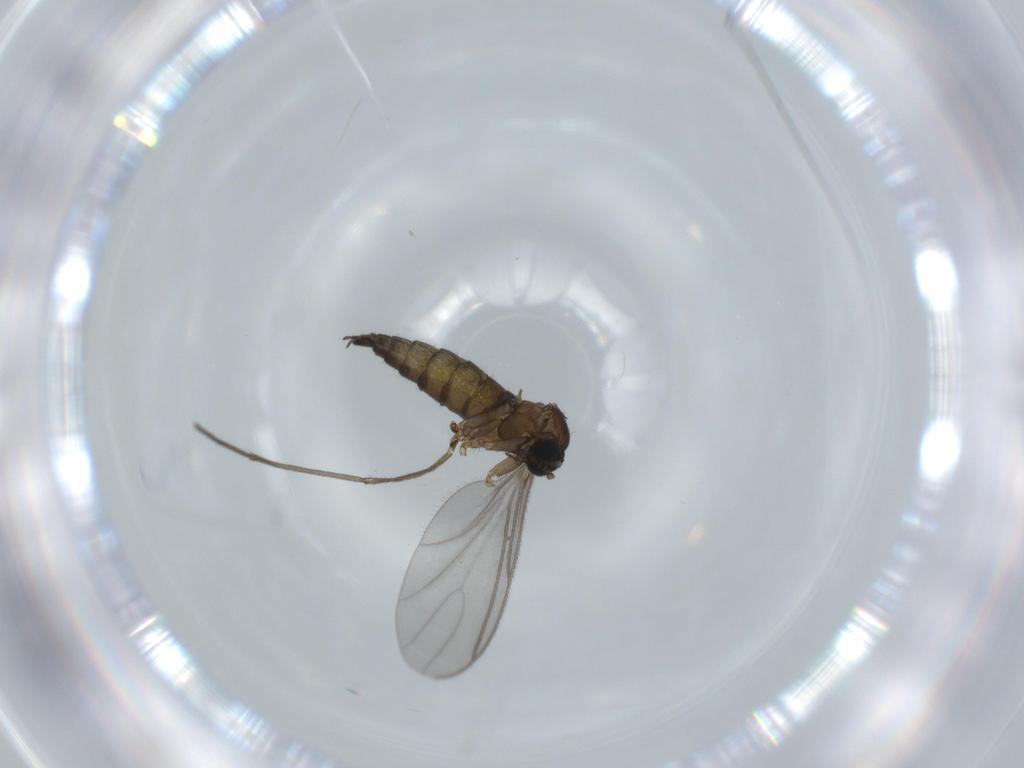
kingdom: Animalia
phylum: Arthropoda
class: Insecta
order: Diptera
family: Sciaridae
